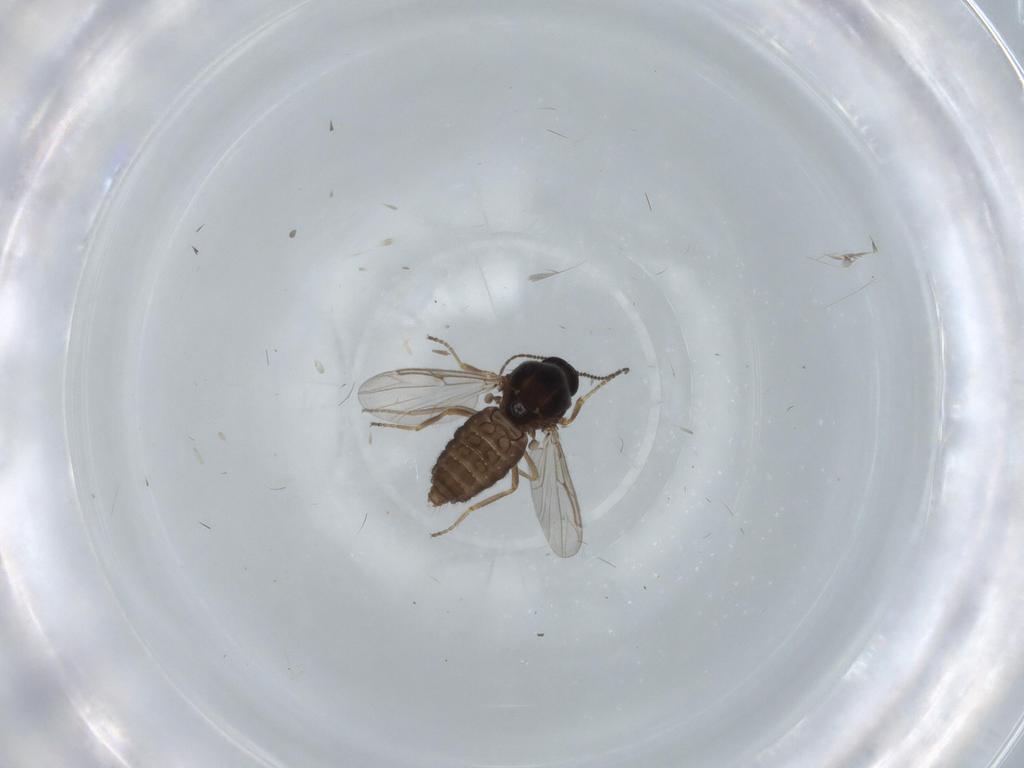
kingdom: Animalia
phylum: Arthropoda
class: Insecta
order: Diptera
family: Ceratopogonidae
